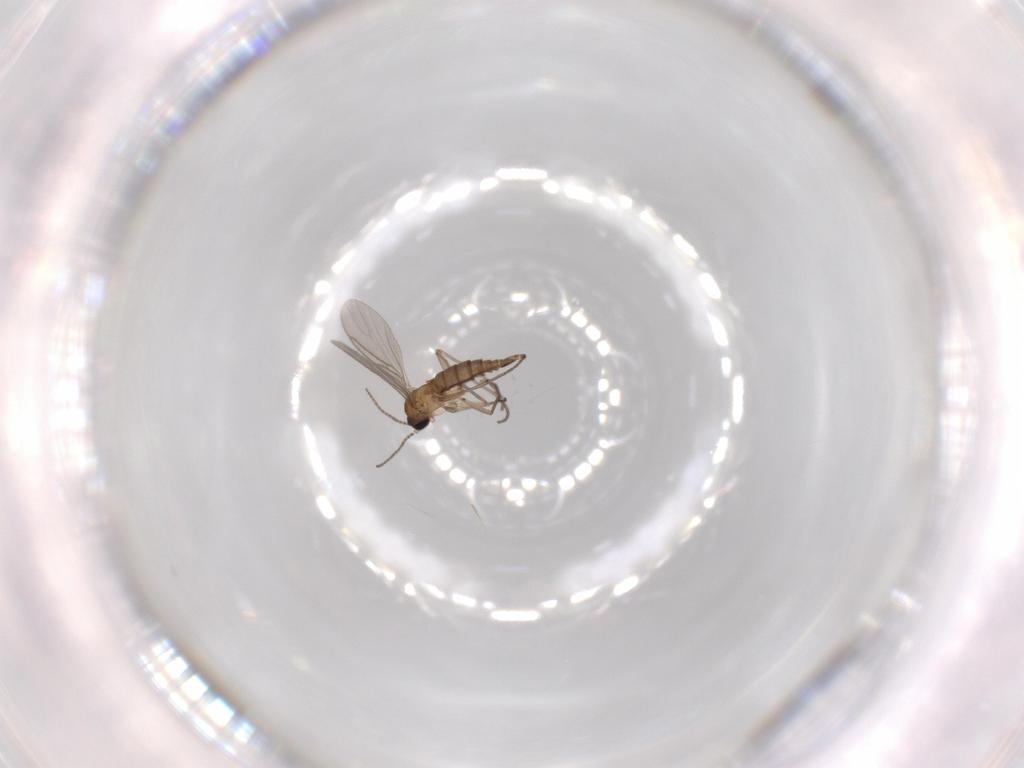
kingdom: Animalia
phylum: Arthropoda
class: Insecta
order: Diptera
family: Sciaridae
